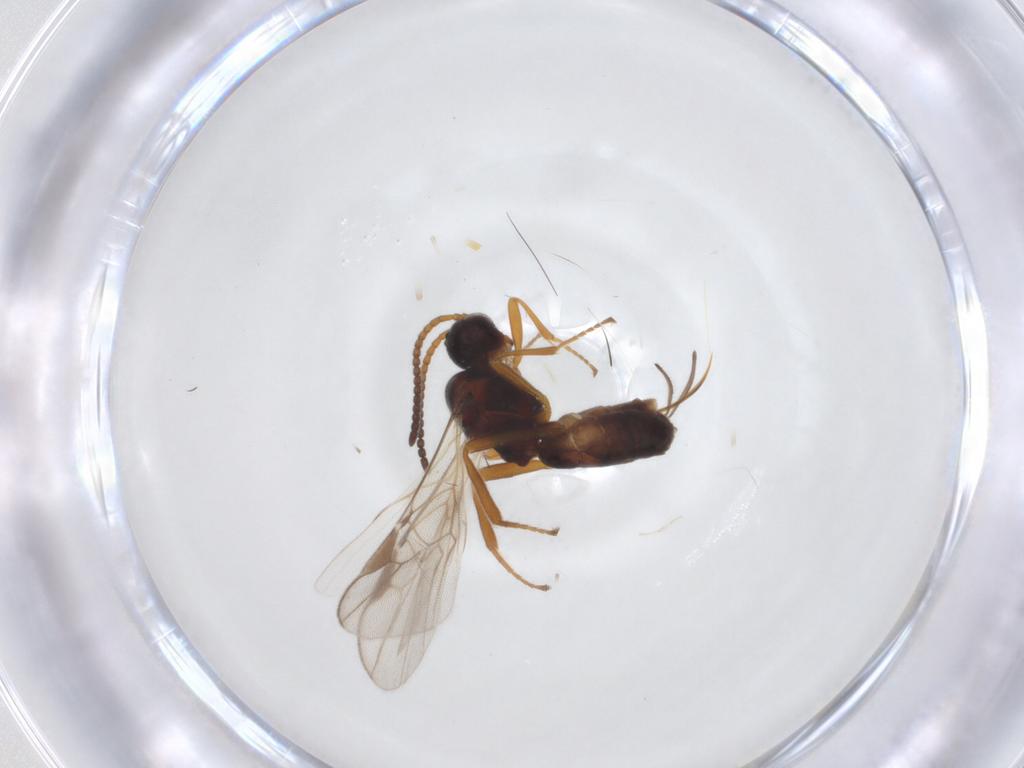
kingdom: Animalia
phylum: Arthropoda
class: Insecta
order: Hymenoptera
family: Braconidae
